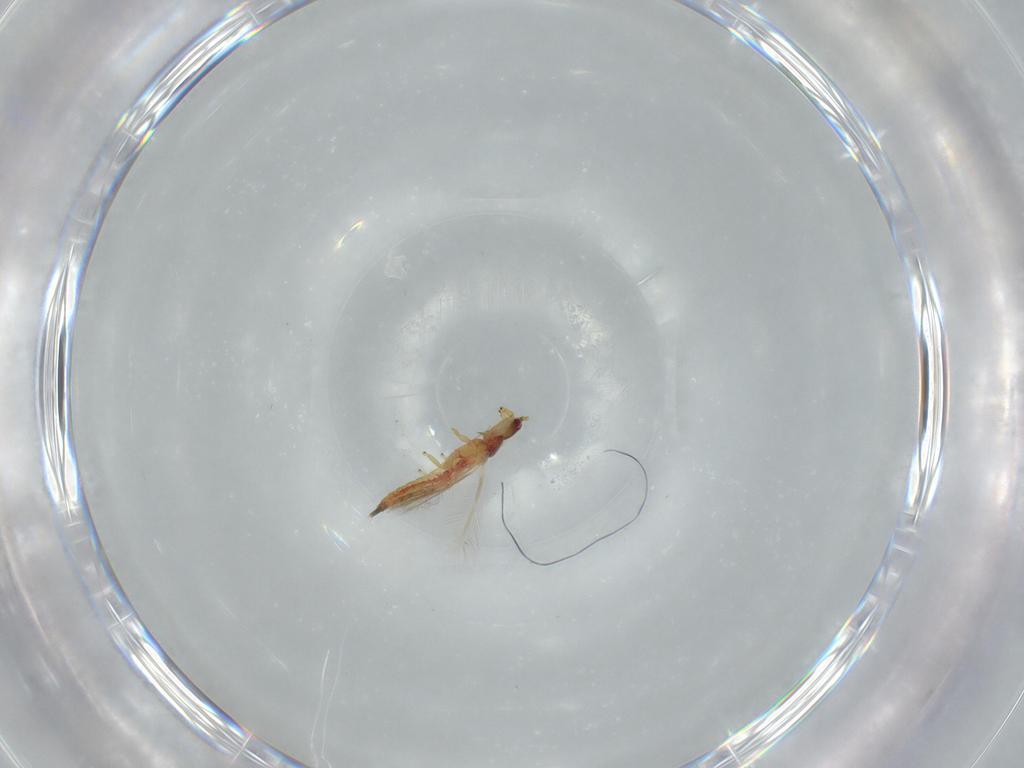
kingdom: Animalia
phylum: Arthropoda
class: Insecta
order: Thysanoptera
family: Phlaeothripidae
